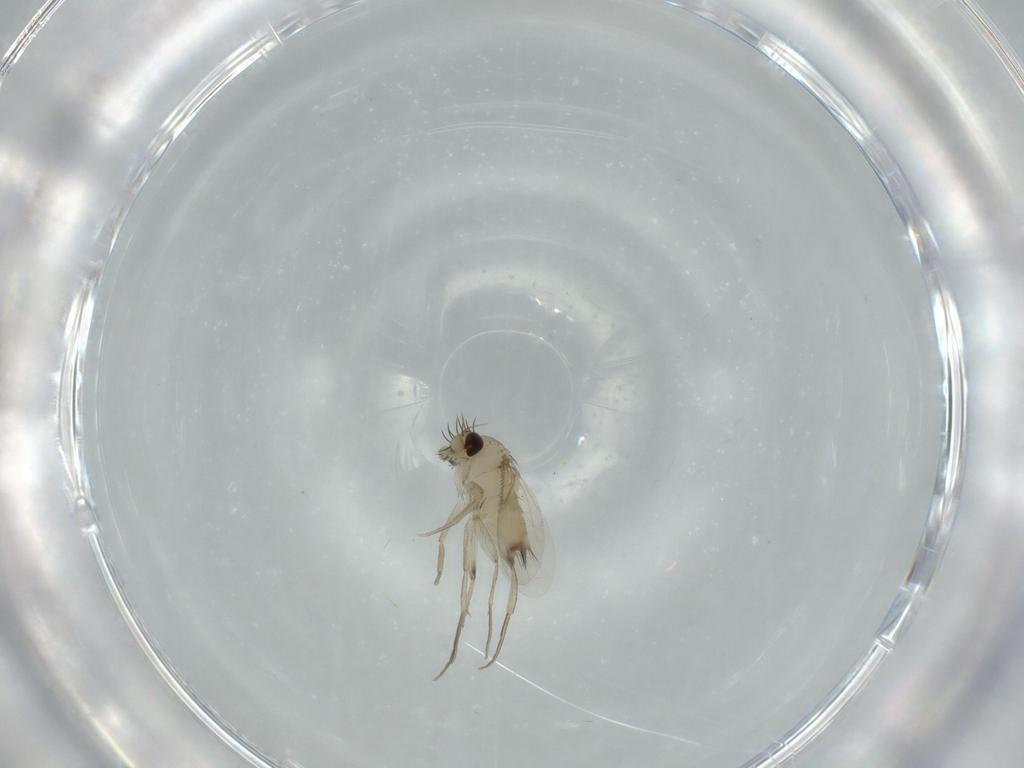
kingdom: Animalia
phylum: Arthropoda
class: Insecta
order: Diptera
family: Phoridae
